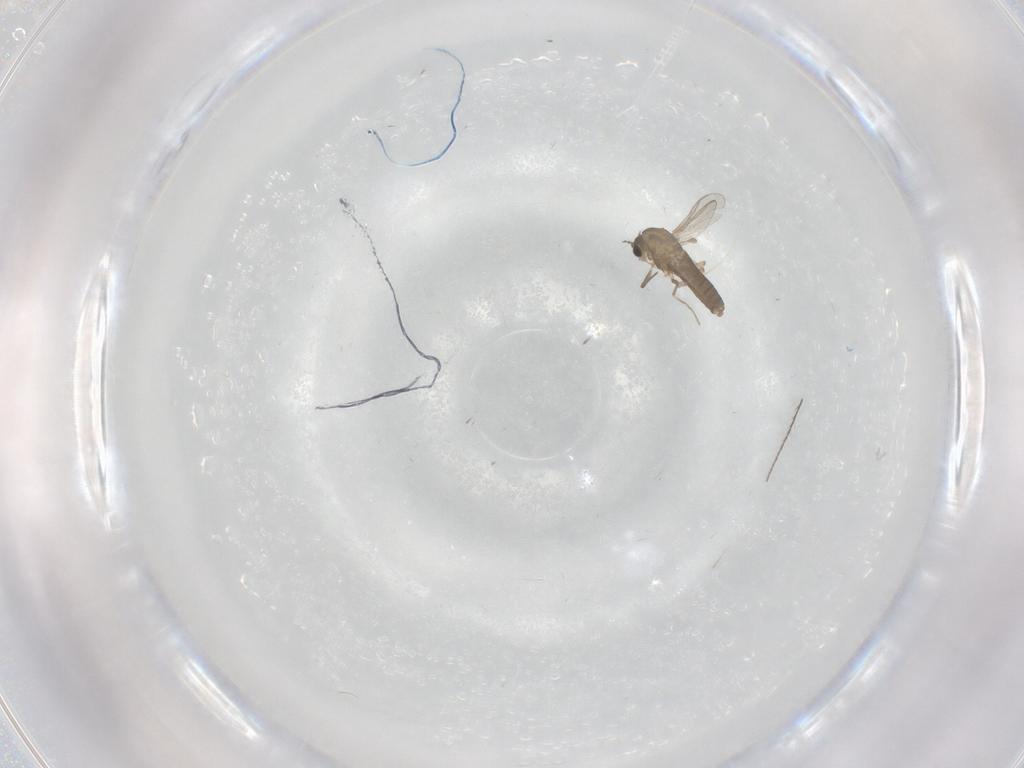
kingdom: Animalia
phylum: Arthropoda
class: Insecta
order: Diptera
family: Chironomidae
